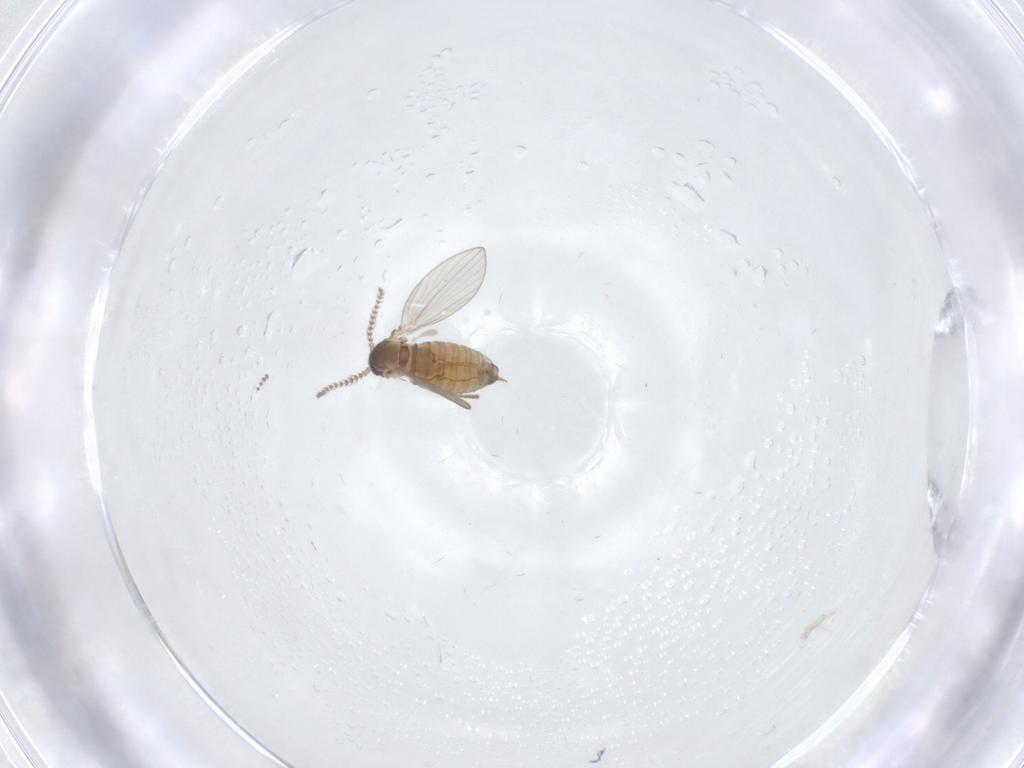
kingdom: Animalia
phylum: Arthropoda
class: Insecta
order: Diptera
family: Psychodidae
